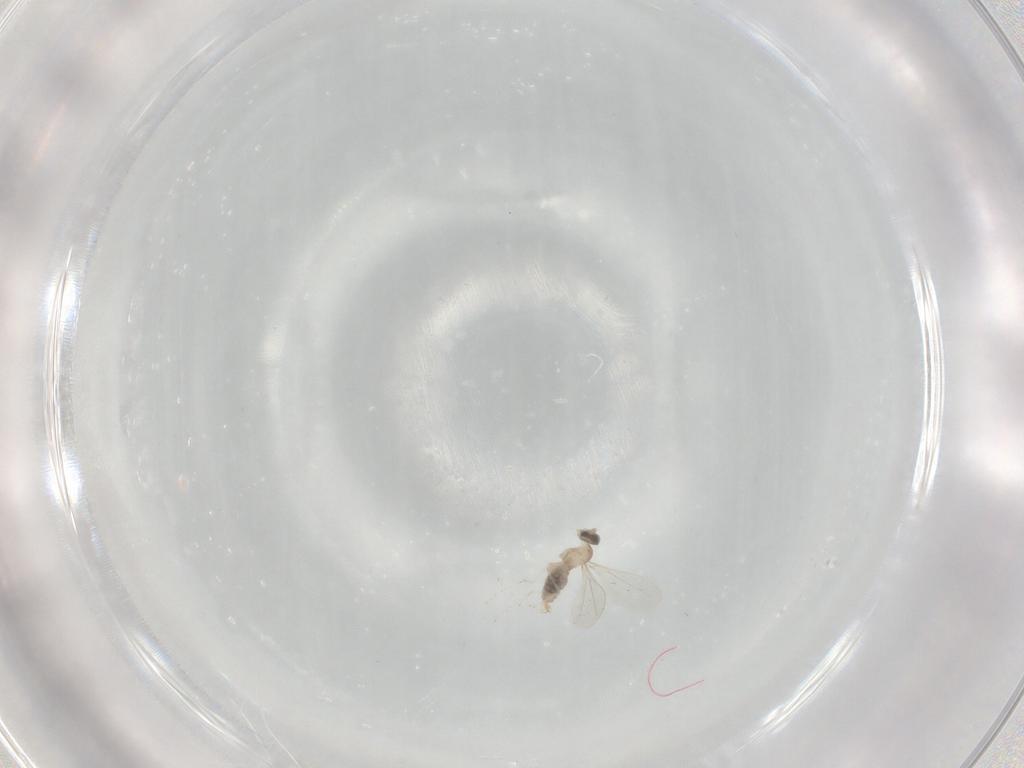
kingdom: Animalia
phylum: Arthropoda
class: Insecta
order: Diptera
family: Cecidomyiidae
